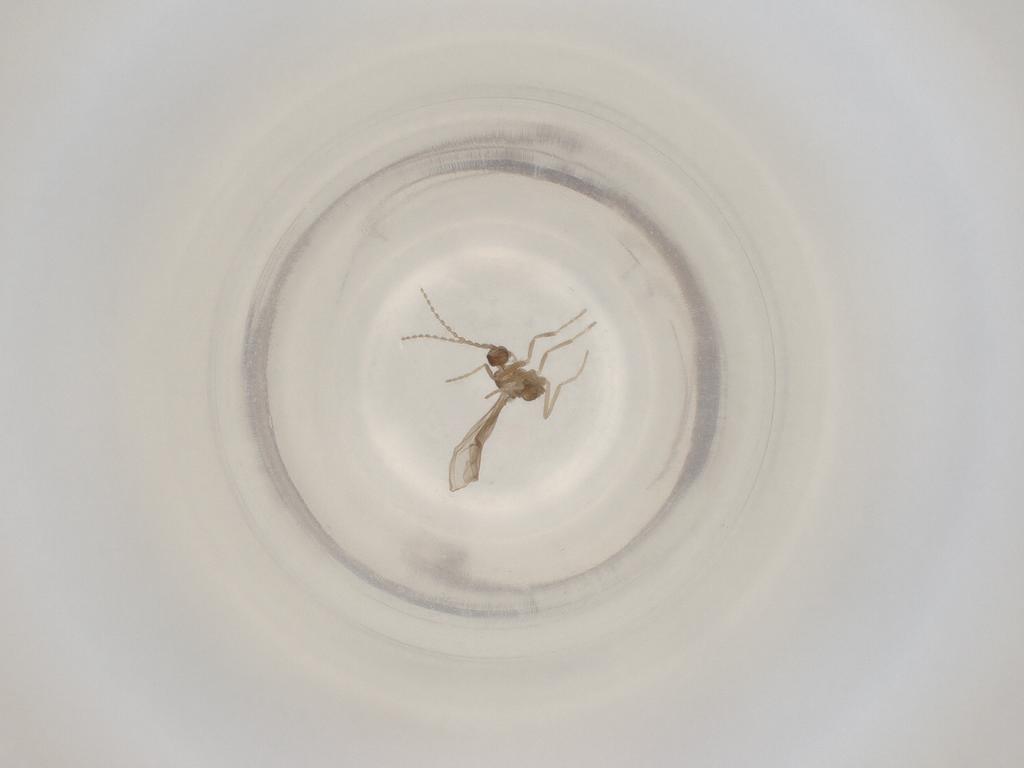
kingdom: Animalia
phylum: Arthropoda
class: Insecta
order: Diptera
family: Cecidomyiidae
